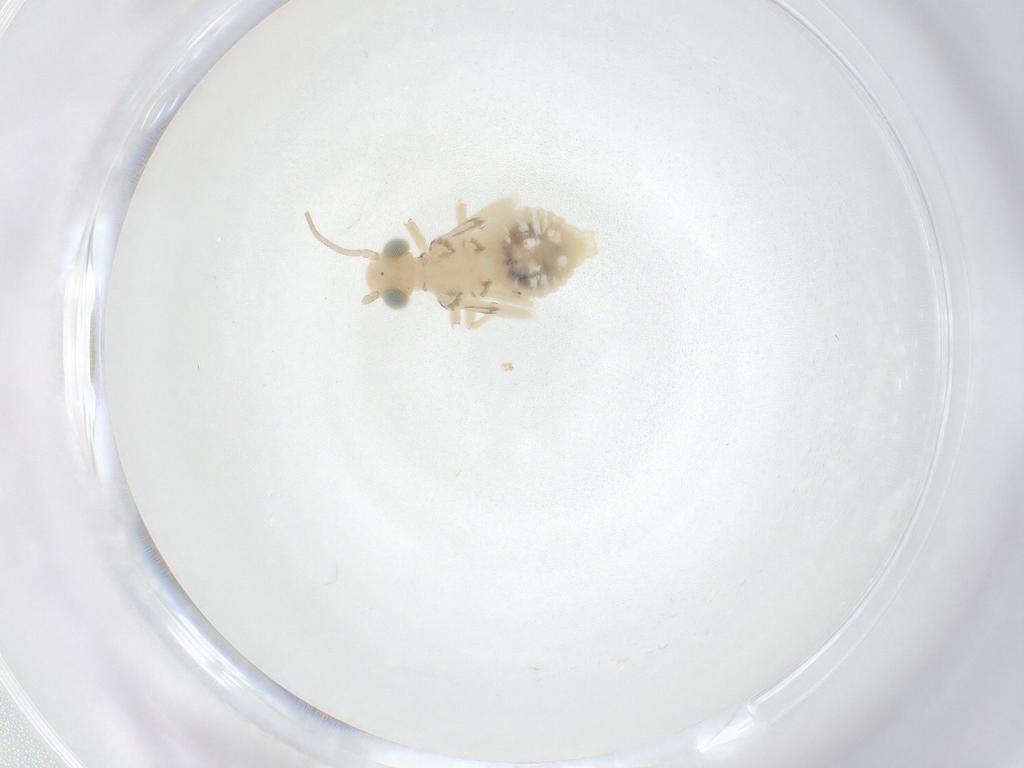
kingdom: Animalia
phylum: Arthropoda
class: Insecta
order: Psocodea
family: Caeciliusidae
